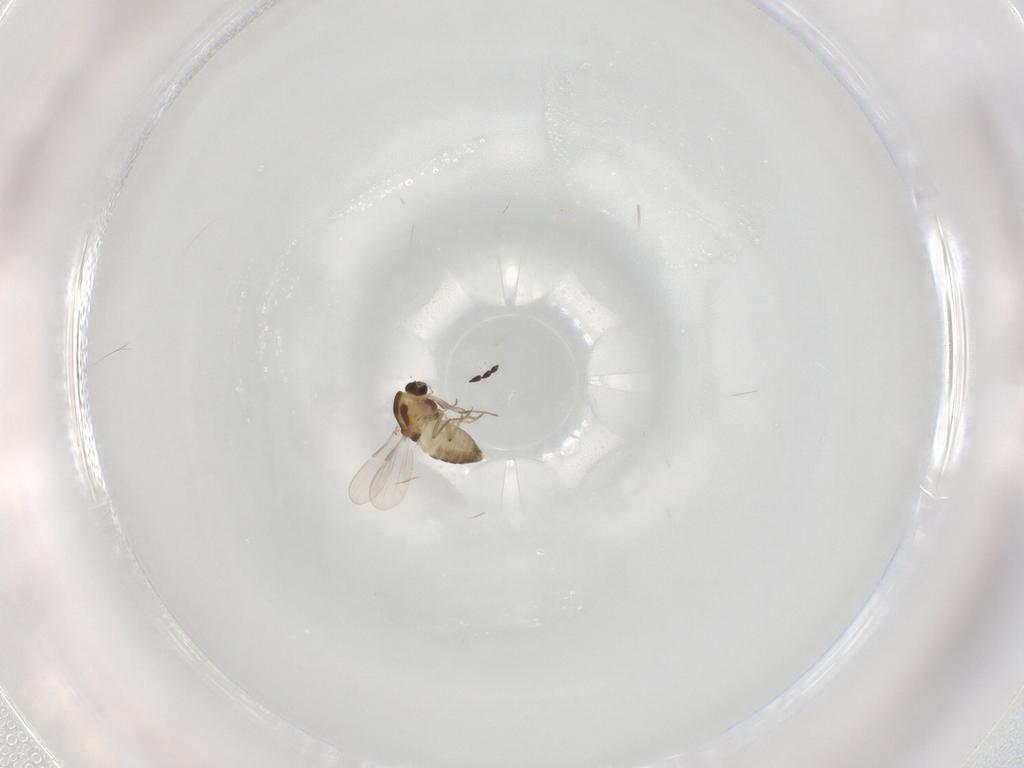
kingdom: Animalia
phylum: Arthropoda
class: Insecta
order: Diptera
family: Chironomidae
